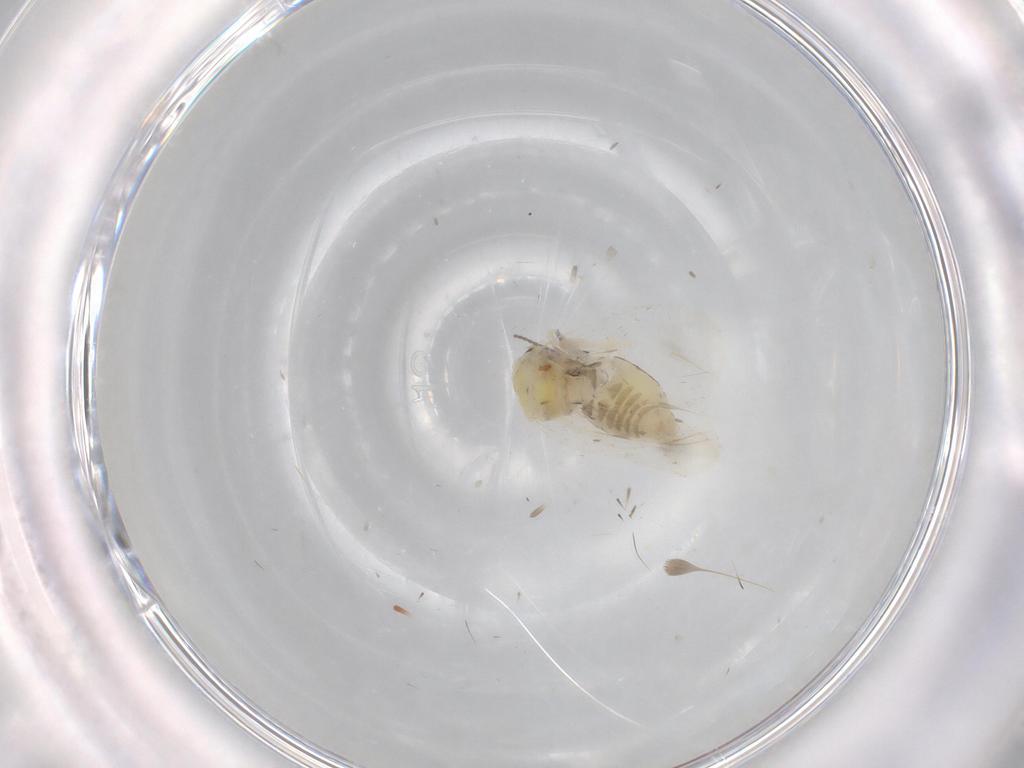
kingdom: Animalia
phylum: Arthropoda
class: Insecta
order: Hemiptera
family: Aleyrodidae
